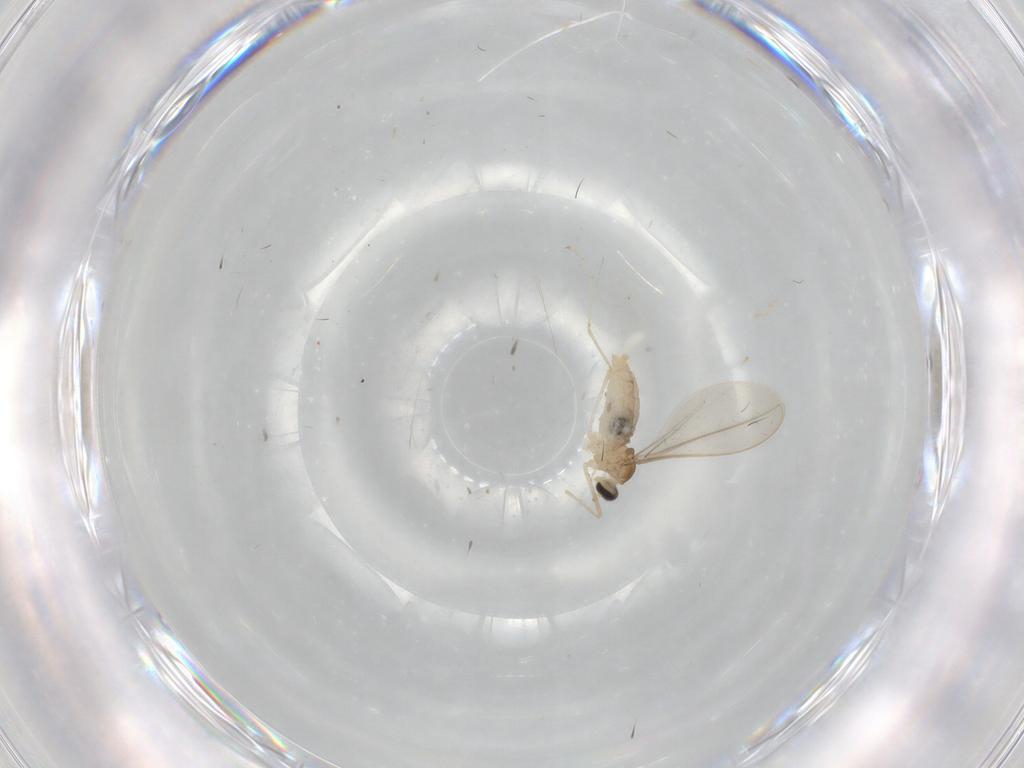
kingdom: Animalia
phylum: Arthropoda
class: Insecta
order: Diptera
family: Cecidomyiidae
